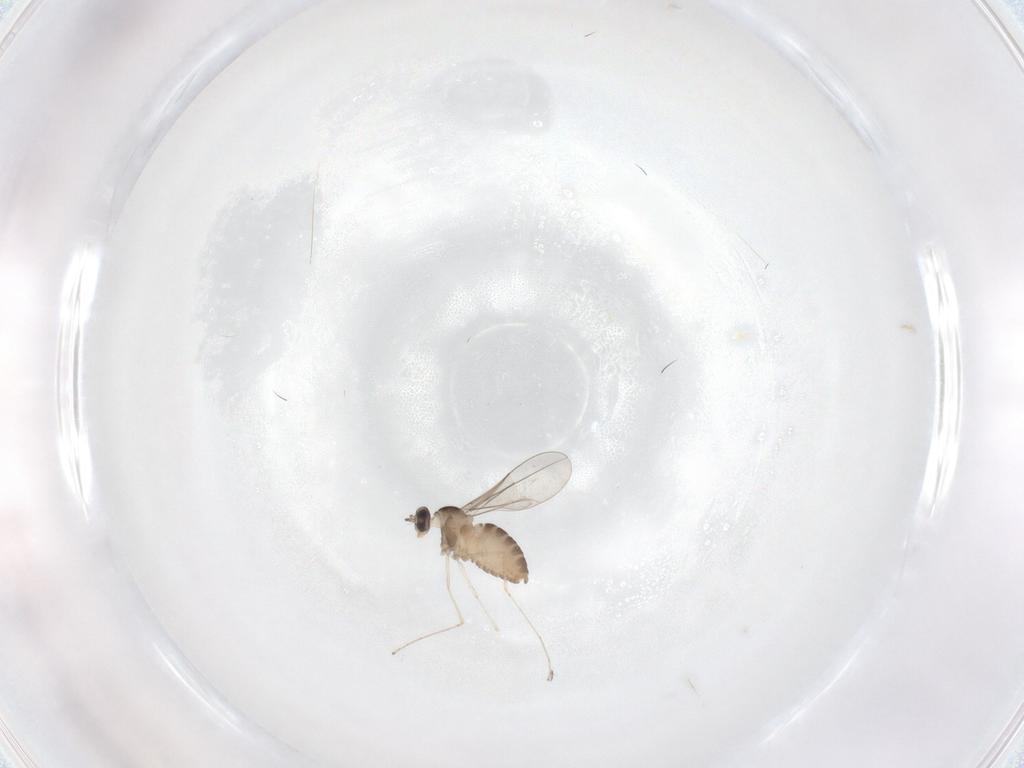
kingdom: Animalia
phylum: Arthropoda
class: Insecta
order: Diptera
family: Cecidomyiidae
